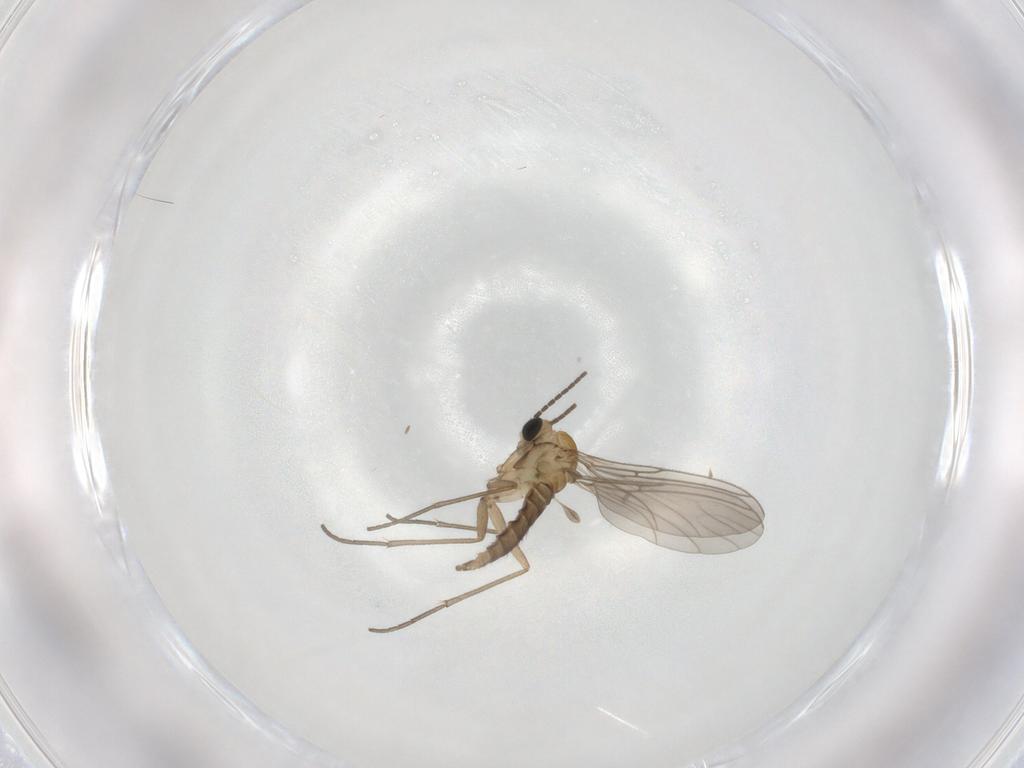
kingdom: Animalia
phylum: Arthropoda
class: Insecta
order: Diptera
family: Sciaridae
